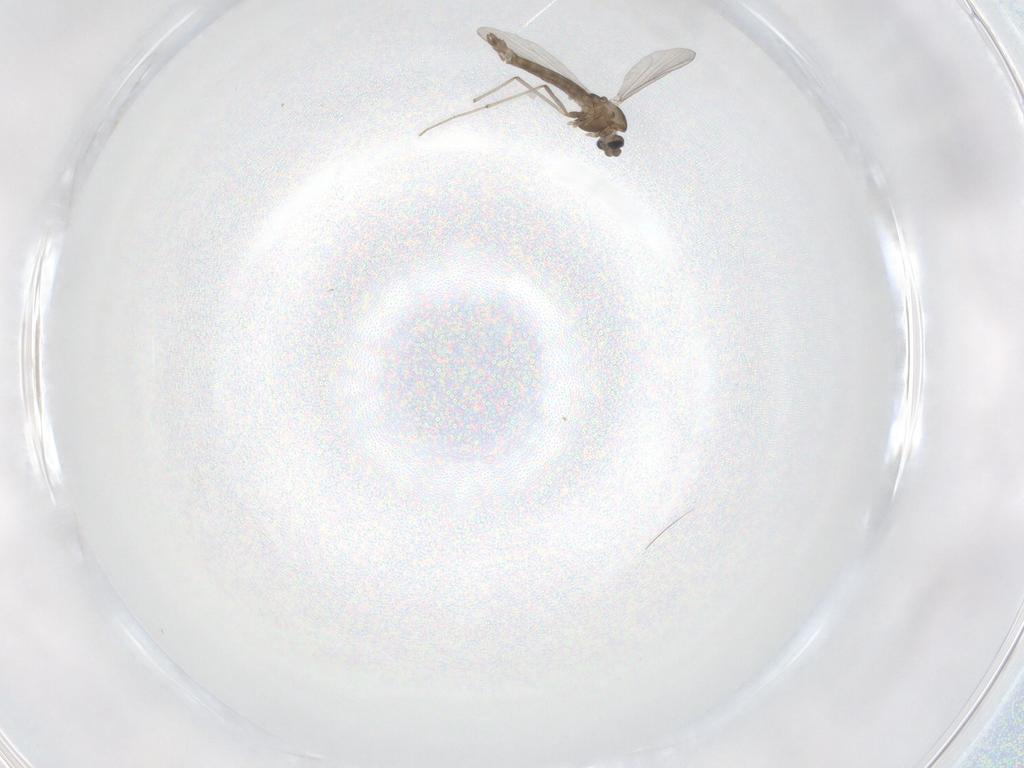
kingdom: Animalia
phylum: Arthropoda
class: Insecta
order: Diptera
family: Chironomidae
